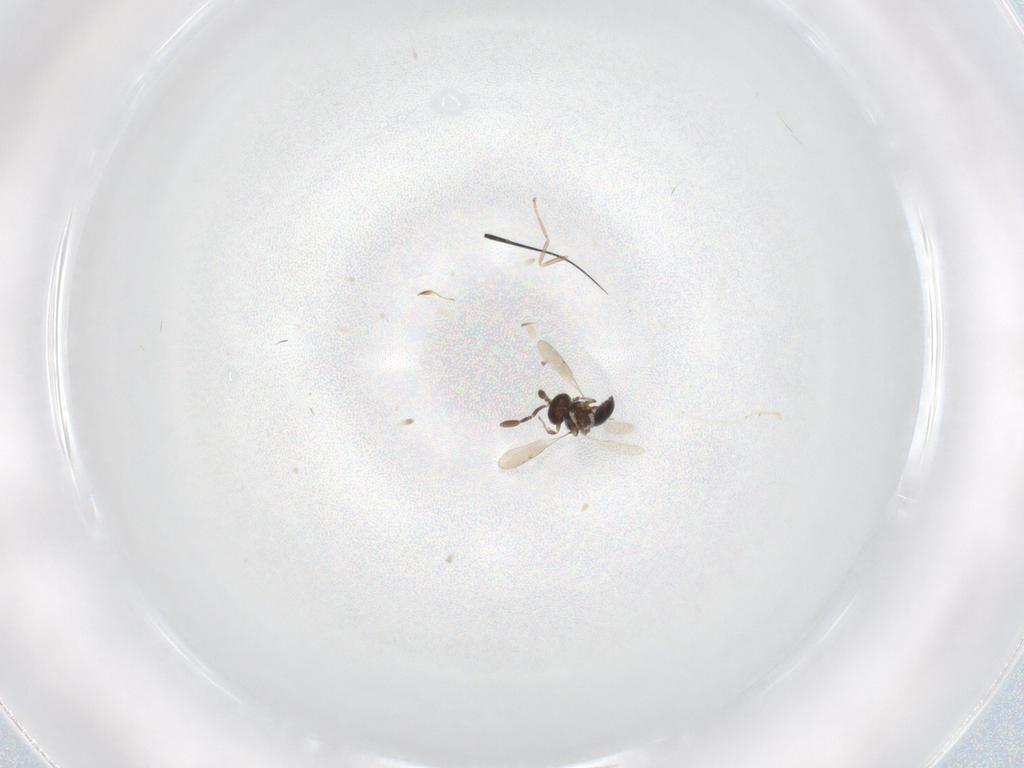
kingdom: Animalia
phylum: Arthropoda
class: Insecta
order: Hymenoptera
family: Scelionidae
